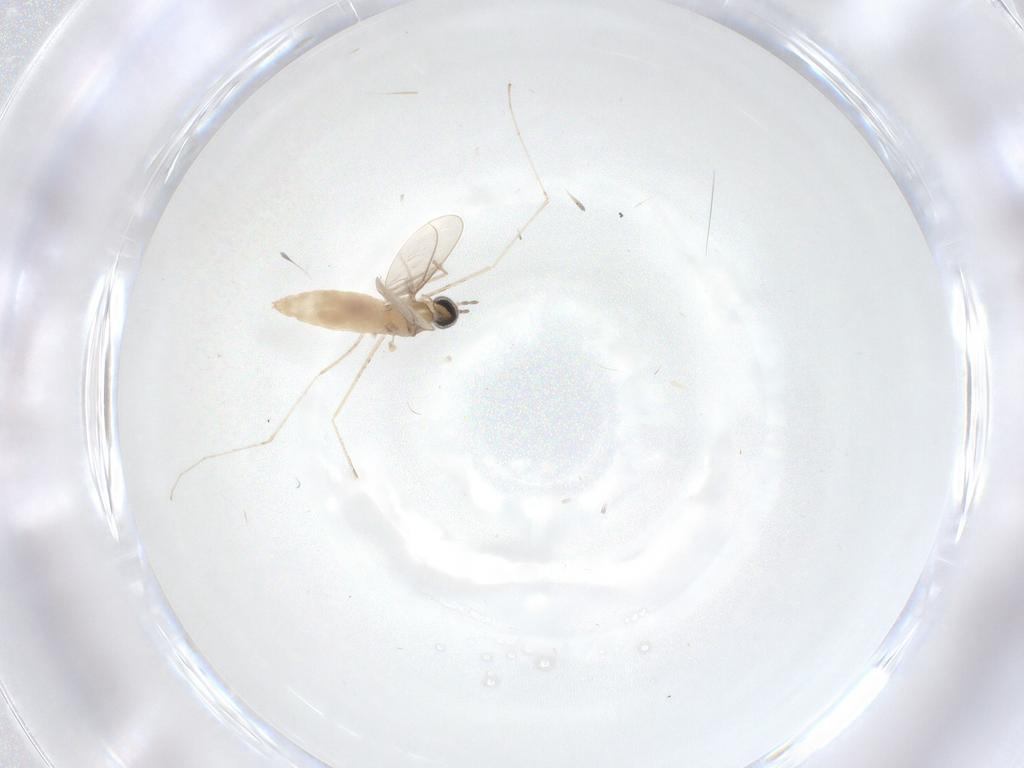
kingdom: Animalia
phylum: Arthropoda
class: Insecta
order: Diptera
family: Cecidomyiidae
